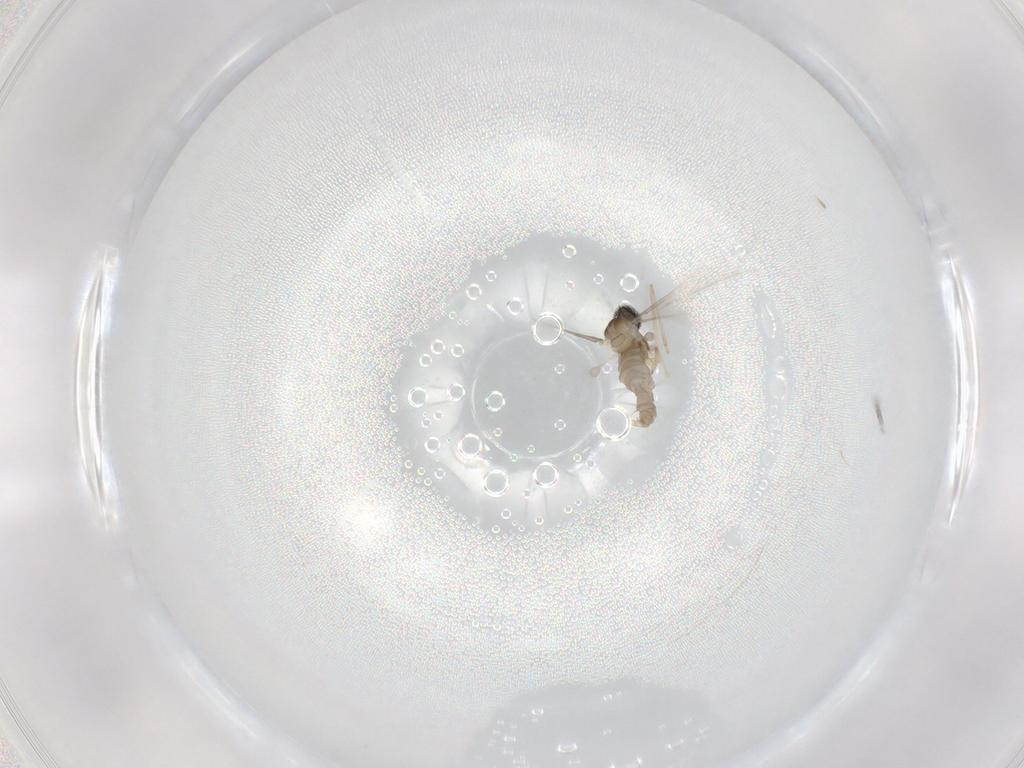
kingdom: Animalia
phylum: Arthropoda
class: Insecta
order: Diptera
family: Cecidomyiidae
